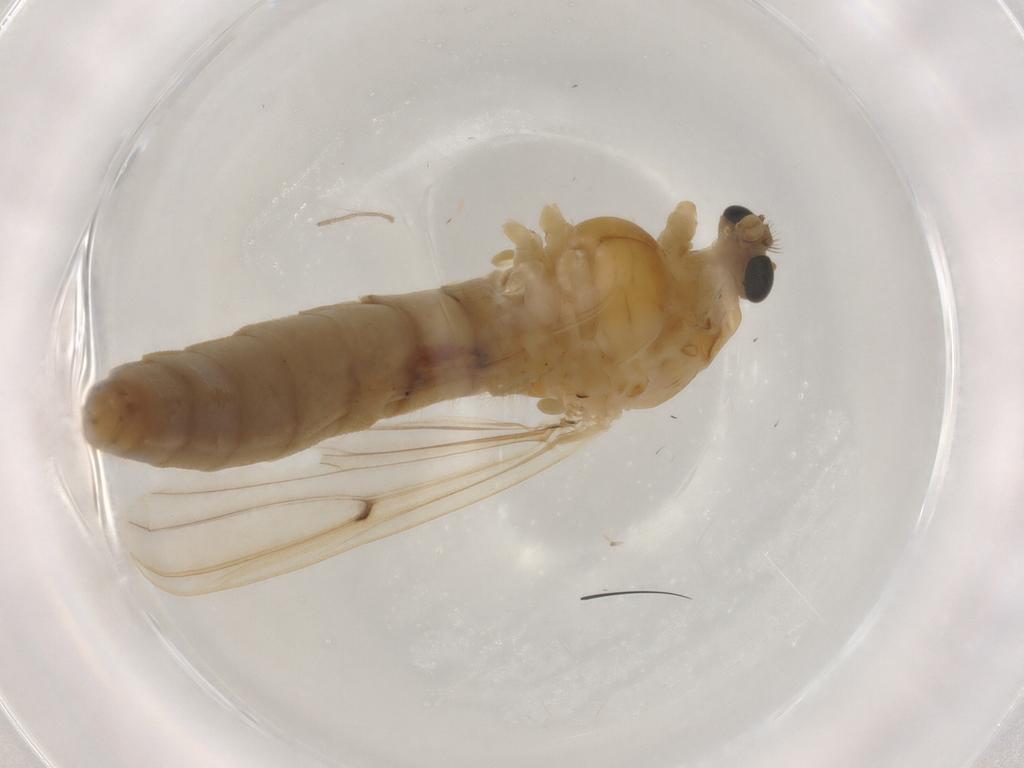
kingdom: Animalia
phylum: Arthropoda
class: Insecta
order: Diptera
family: Chironomidae
